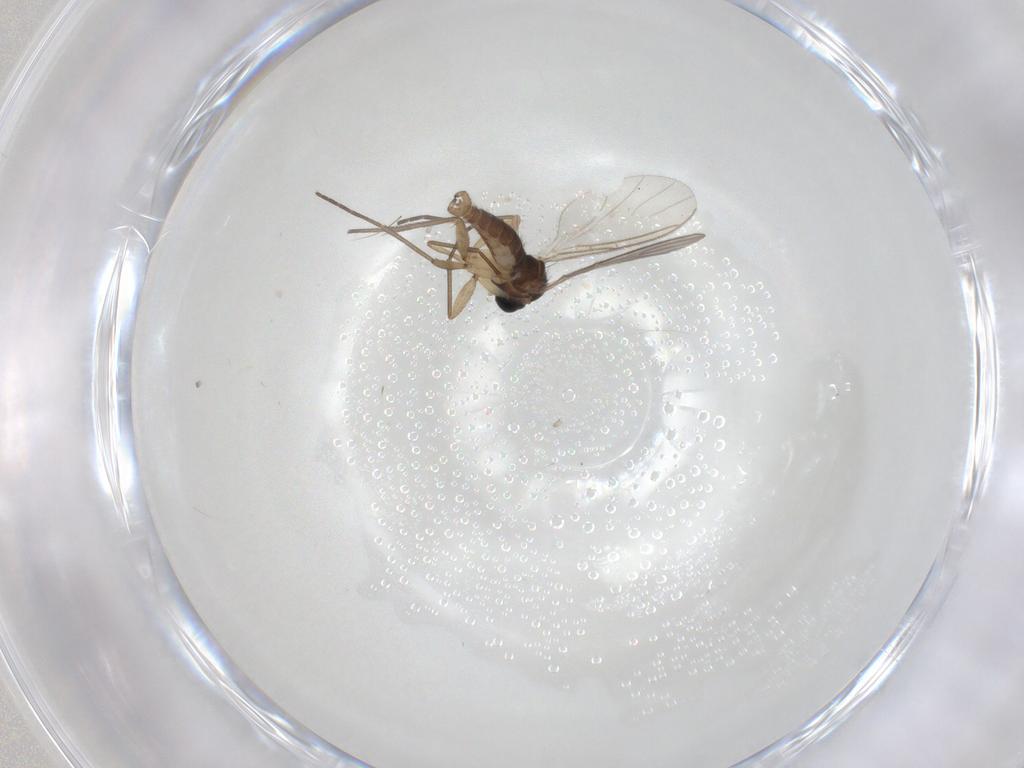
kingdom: Animalia
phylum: Arthropoda
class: Insecta
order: Diptera
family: Sciaridae
